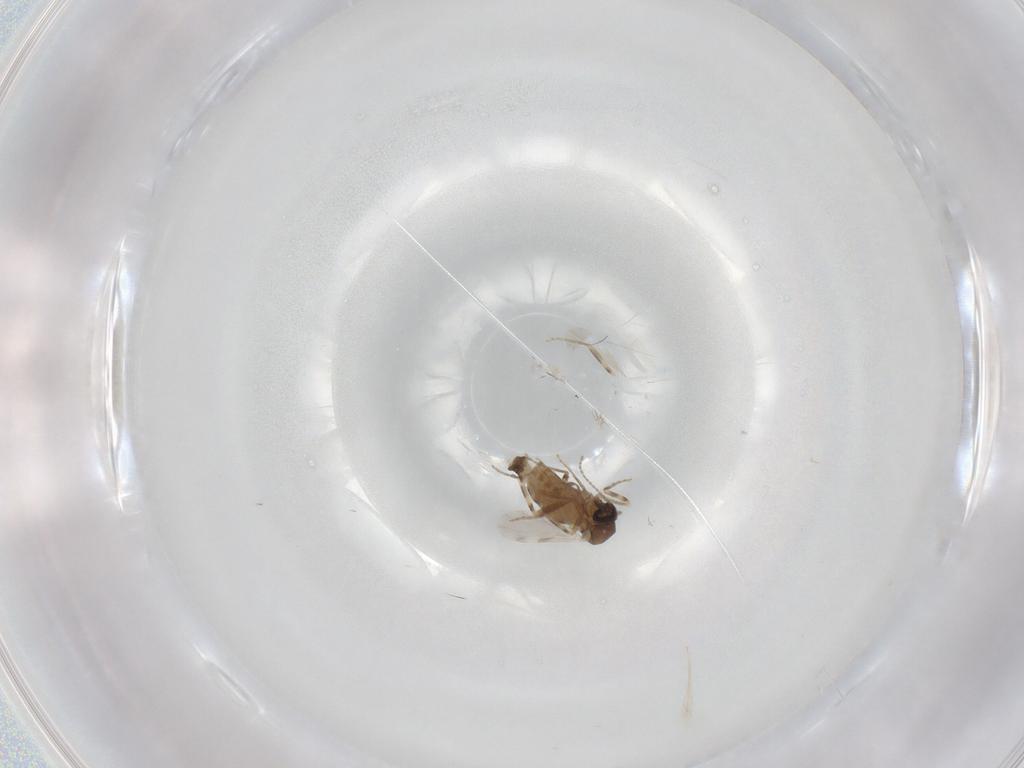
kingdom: Animalia
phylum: Arthropoda
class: Insecta
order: Diptera
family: Ceratopogonidae
